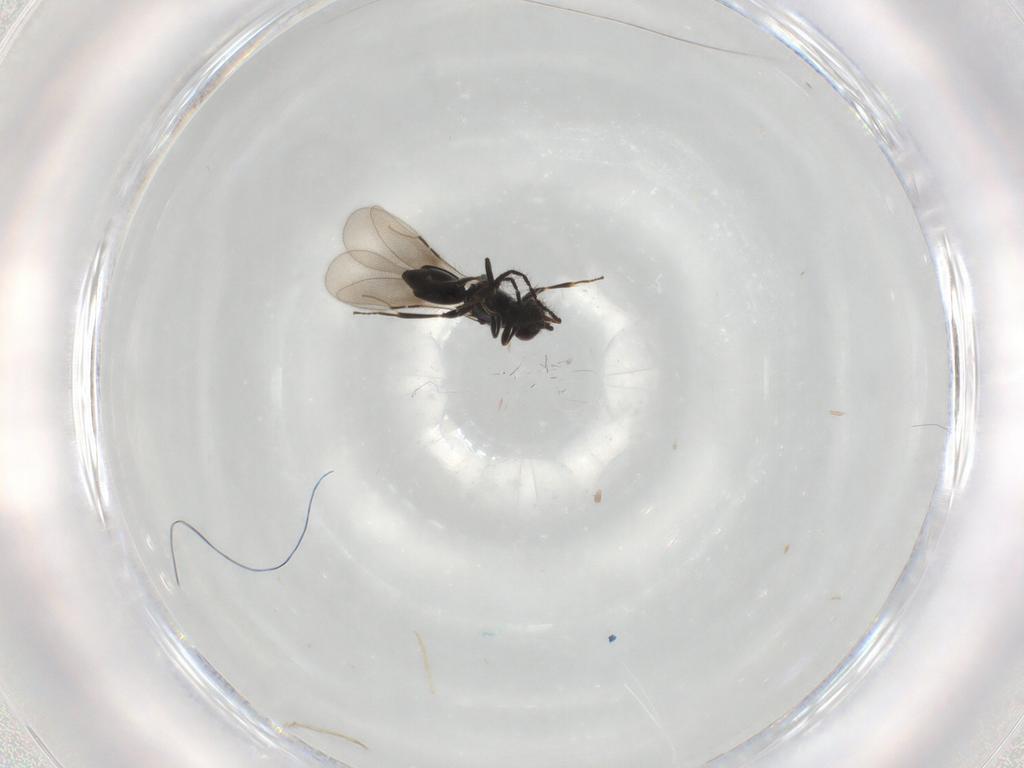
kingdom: Animalia
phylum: Arthropoda
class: Insecta
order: Hymenoptera
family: Ceraphronidae
